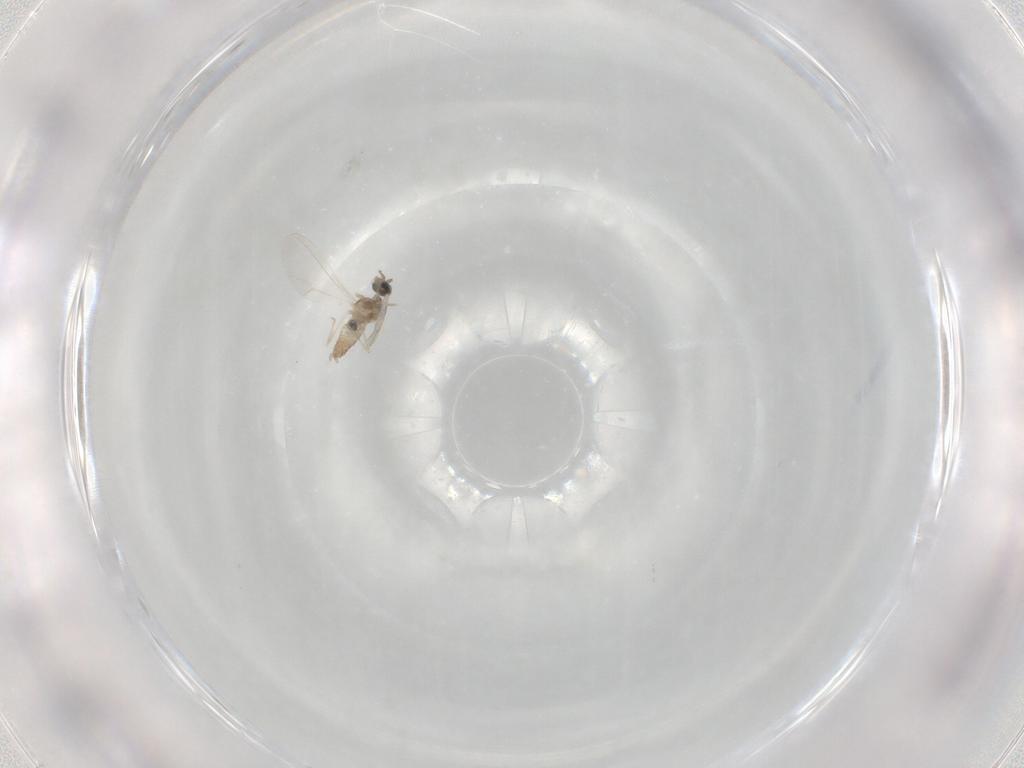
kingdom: Animalia
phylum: Arthropoda
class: Insecta
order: Diptera
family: Cecidomyiidae
